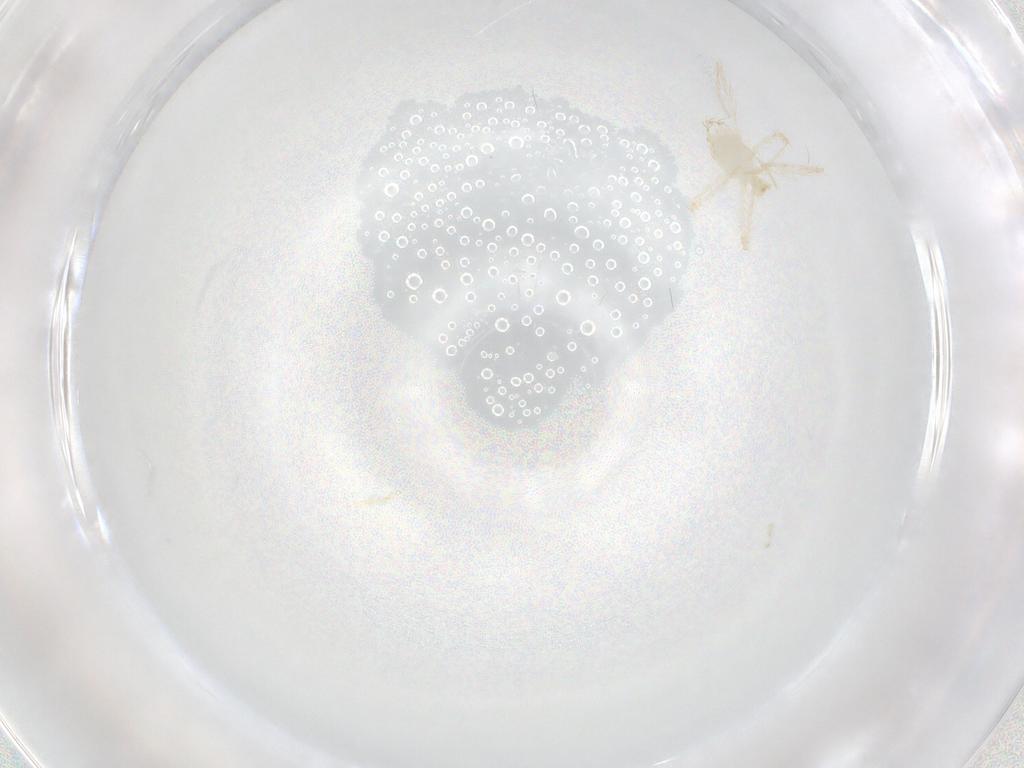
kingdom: Animalia
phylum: Arthropoda
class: Arachnida
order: Trombidiformes
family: Erythraeidae
